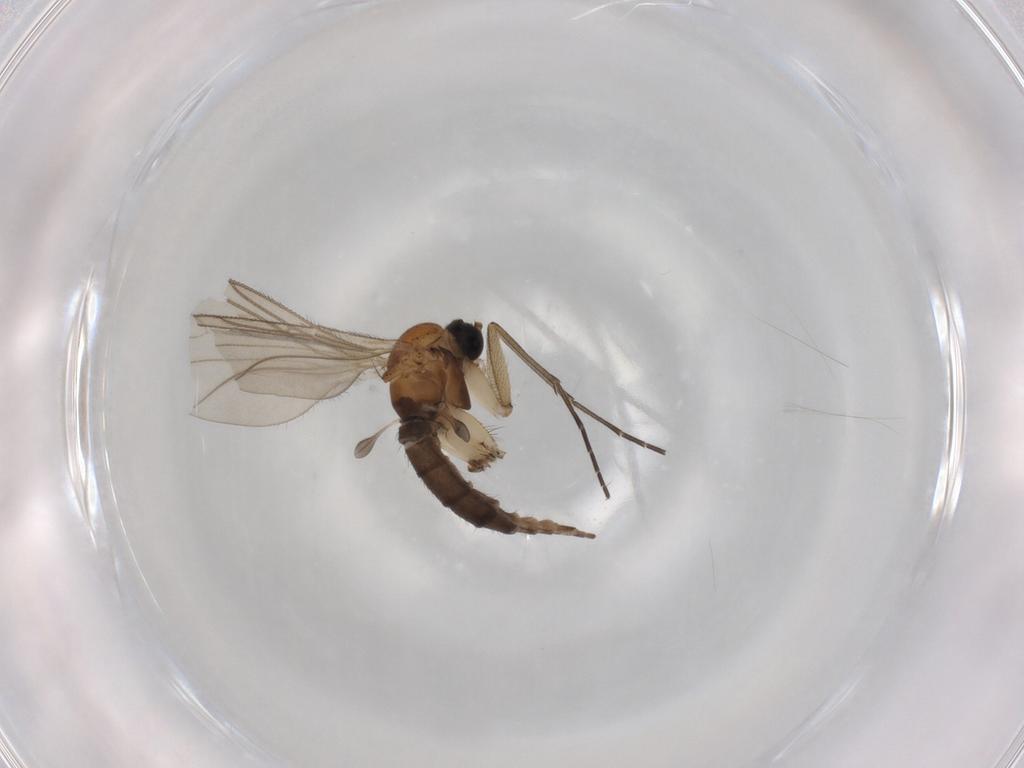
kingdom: Animalia
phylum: Arthropoda
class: Insecta
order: Diptera
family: Sciaridae
